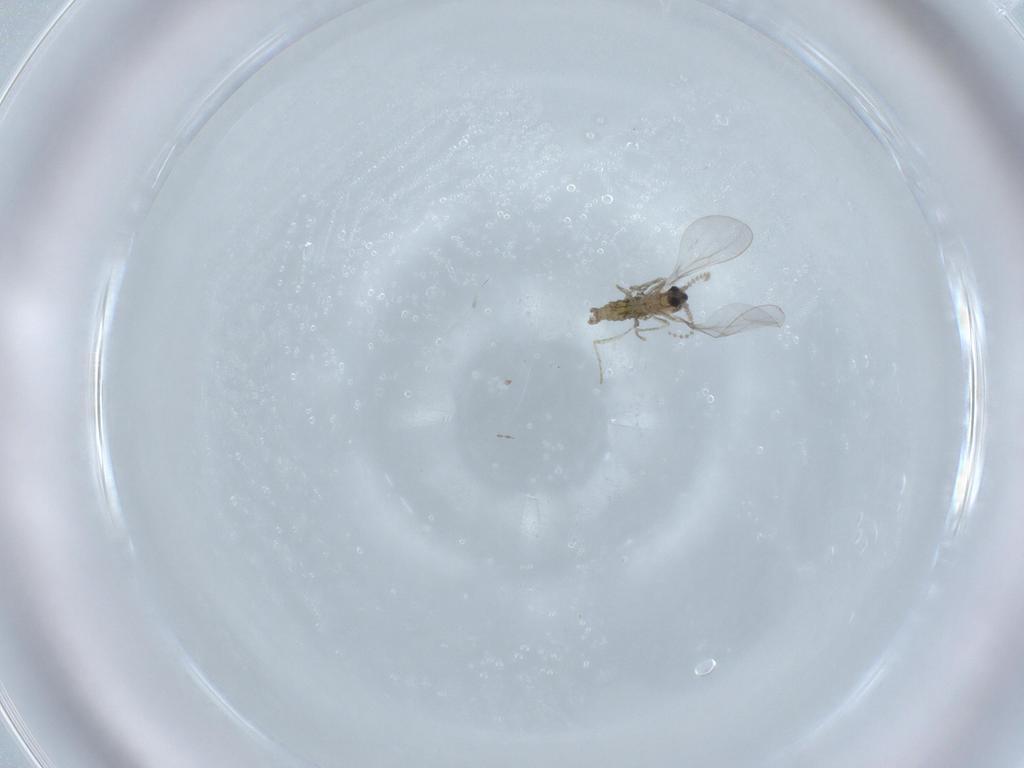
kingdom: Animalia
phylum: Arthropoda
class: Insecta
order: Diptera
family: Cecidomyiidae
